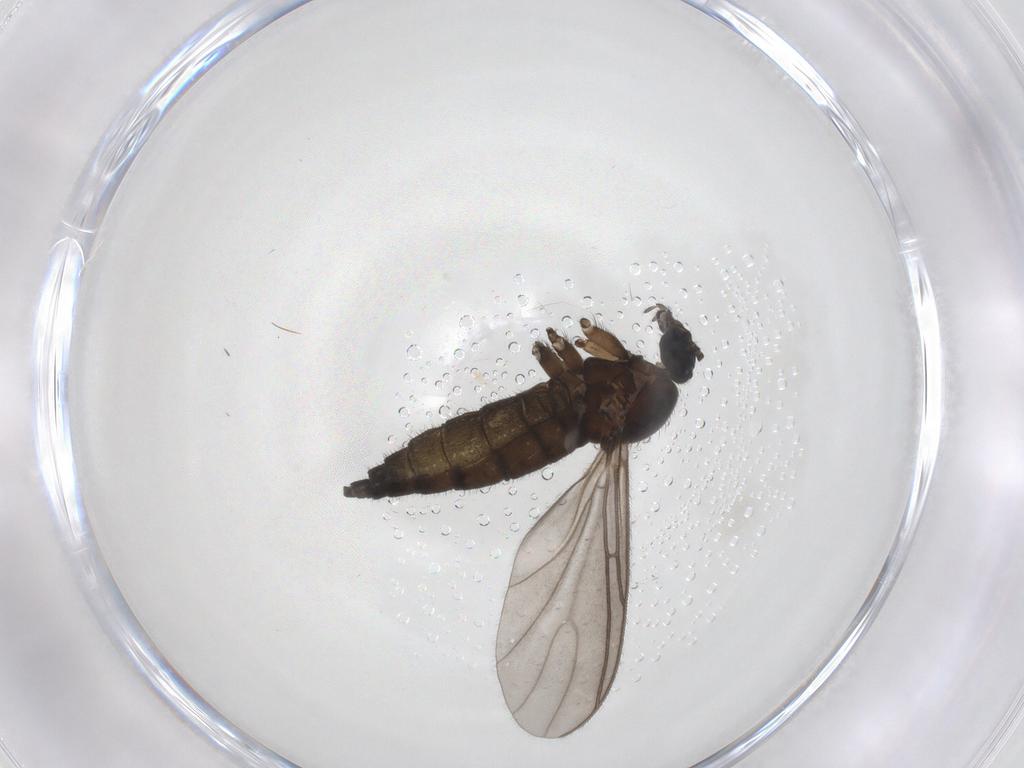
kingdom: Animalia
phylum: Arthropoda
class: Insecta
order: Diptera
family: Sciaridae
